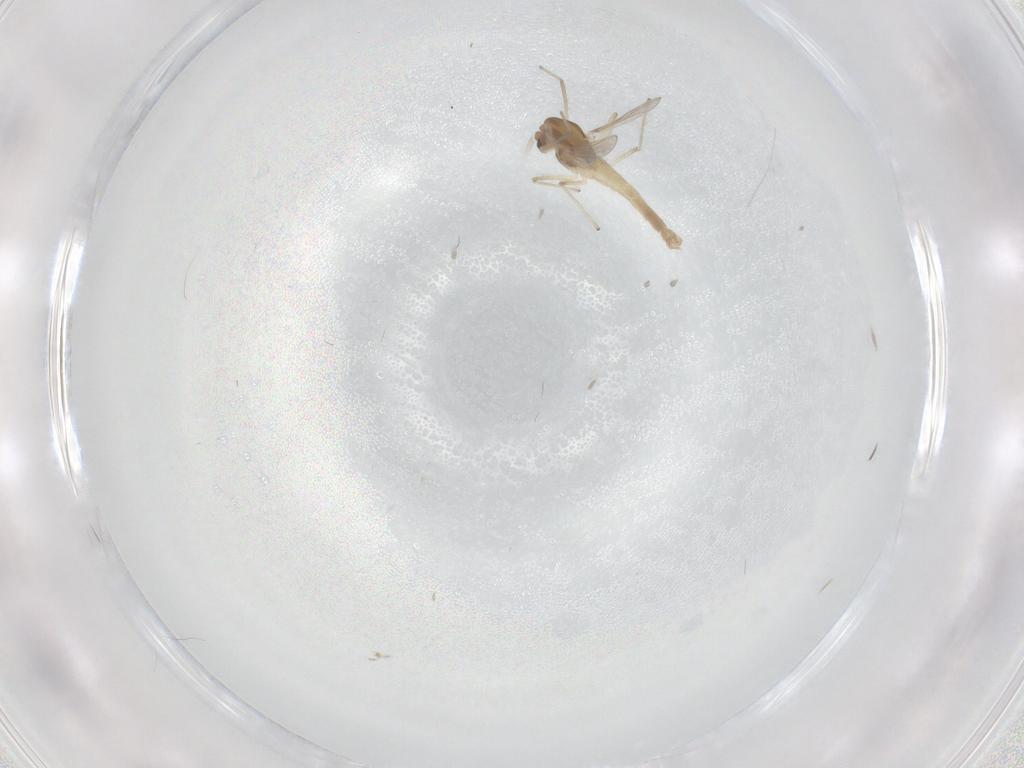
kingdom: Animalia
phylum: Arthropoda
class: Insecta
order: Diptera
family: Chironomidae
